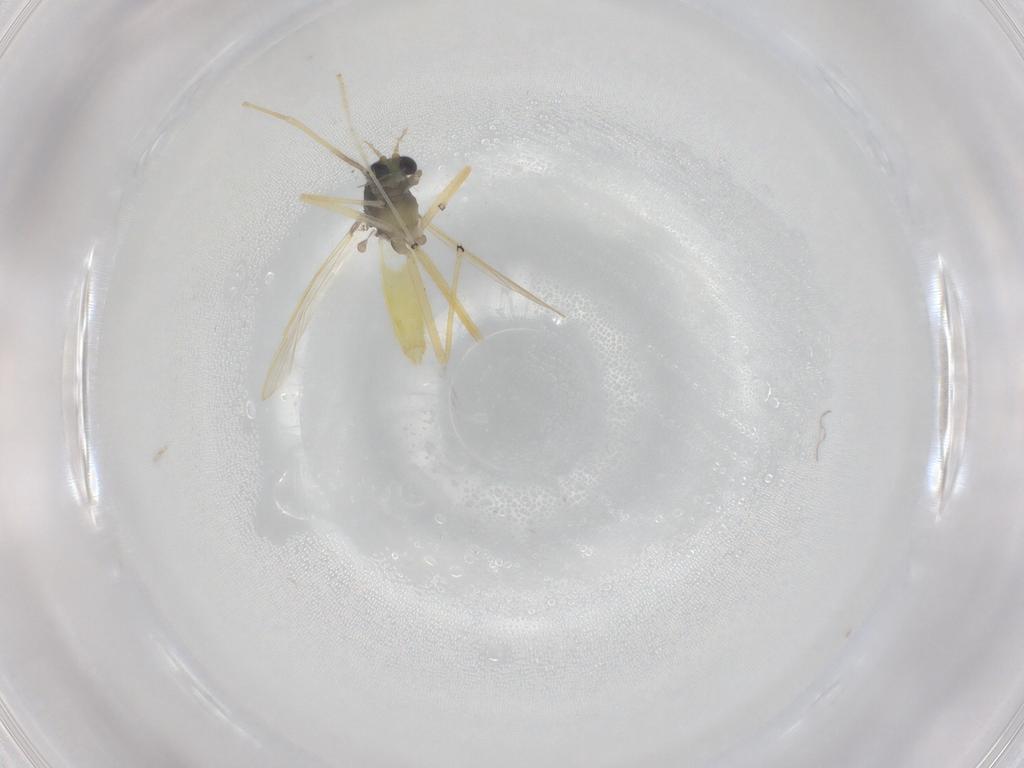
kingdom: Animalia
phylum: Arthropoda
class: Insecta
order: Diptera
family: Chironomidae
